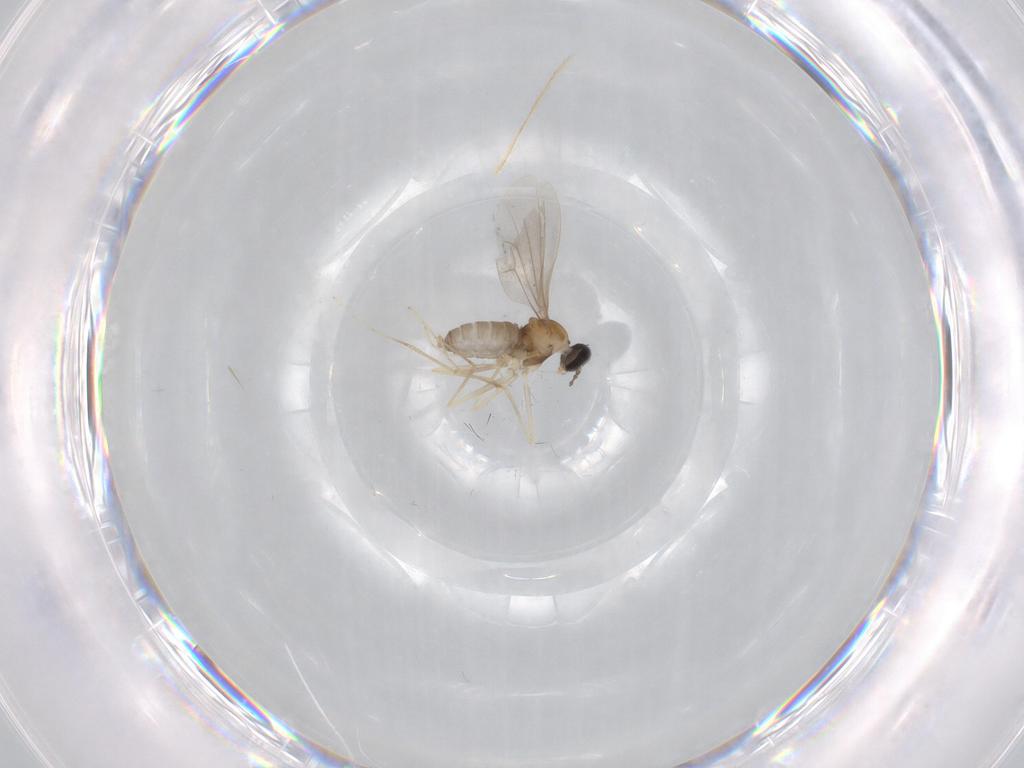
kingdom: Animalia
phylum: Arthropoda
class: Insecta
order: Diptera
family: Cecidomyiidae
